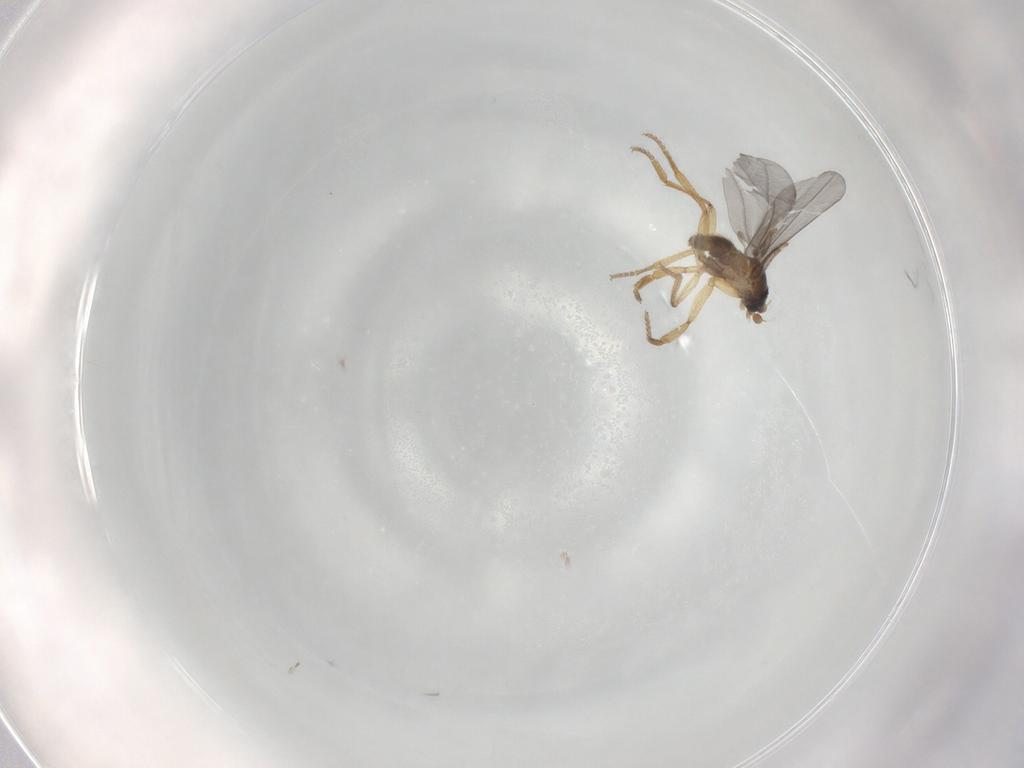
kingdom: Animalia
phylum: Arthropoda
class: Insecta
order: Diptera
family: Phoridae
